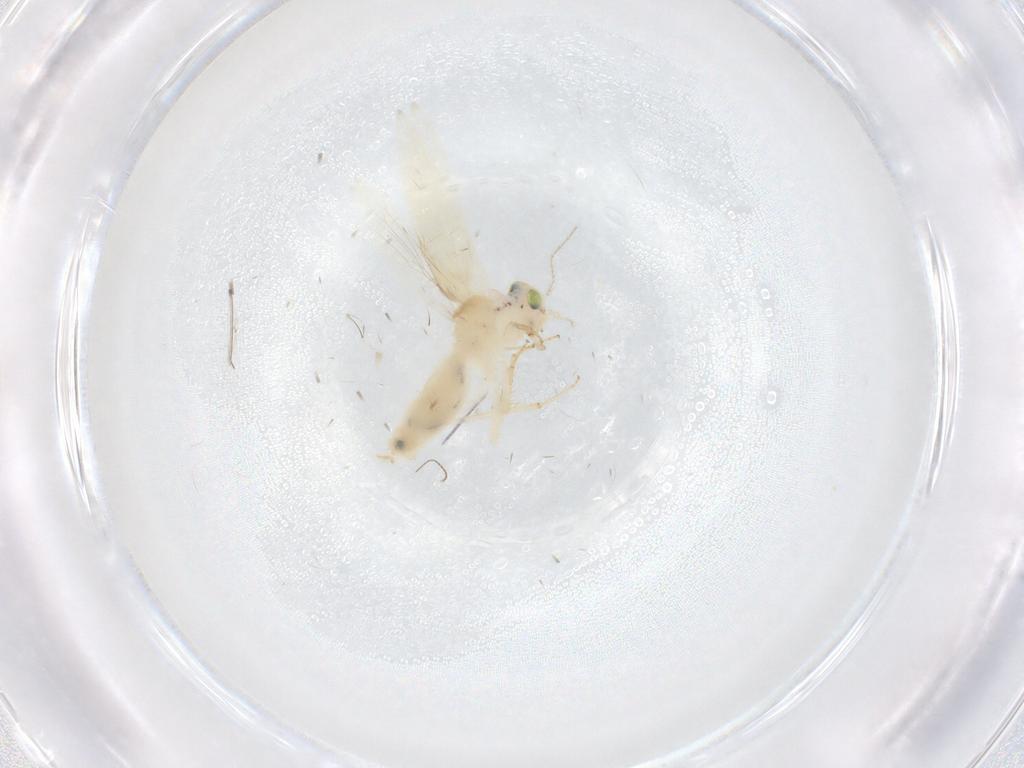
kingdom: Animalia
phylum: Arthropoda
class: Insecta
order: Psocodea
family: Lepidopsocidae
